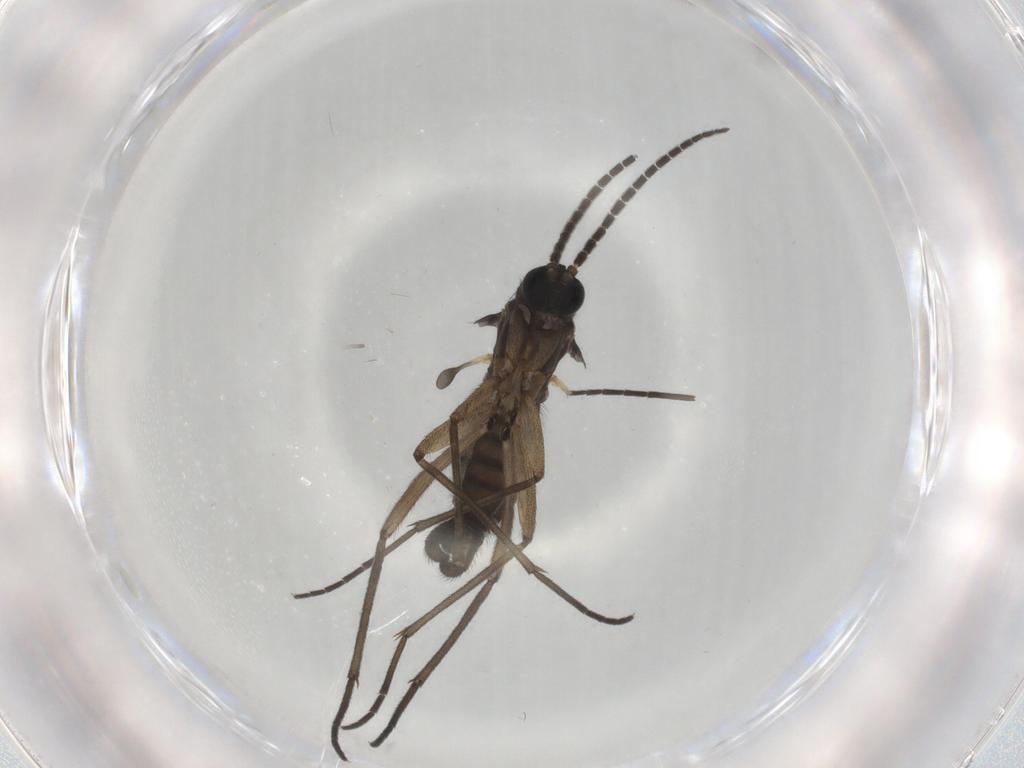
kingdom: Animalia
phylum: Arthropoda
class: Insecta
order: Diptera
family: Sciaridae
